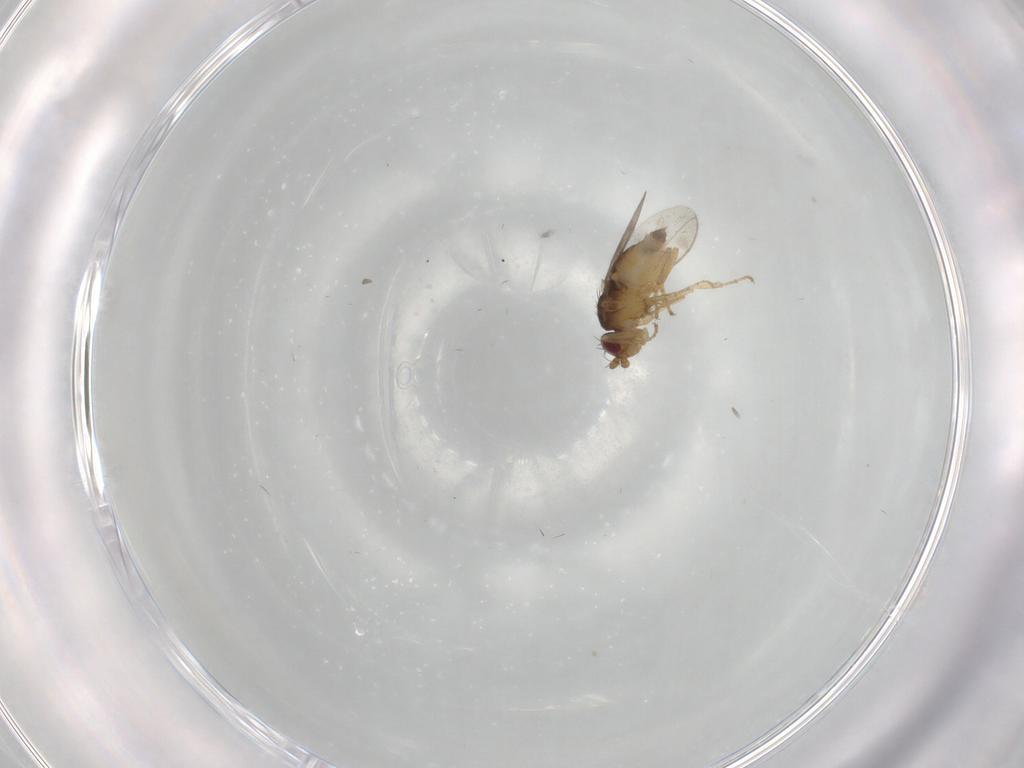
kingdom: Animalia
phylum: Arthropoda
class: Insecta
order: Diptera
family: Sphaeroceridae
